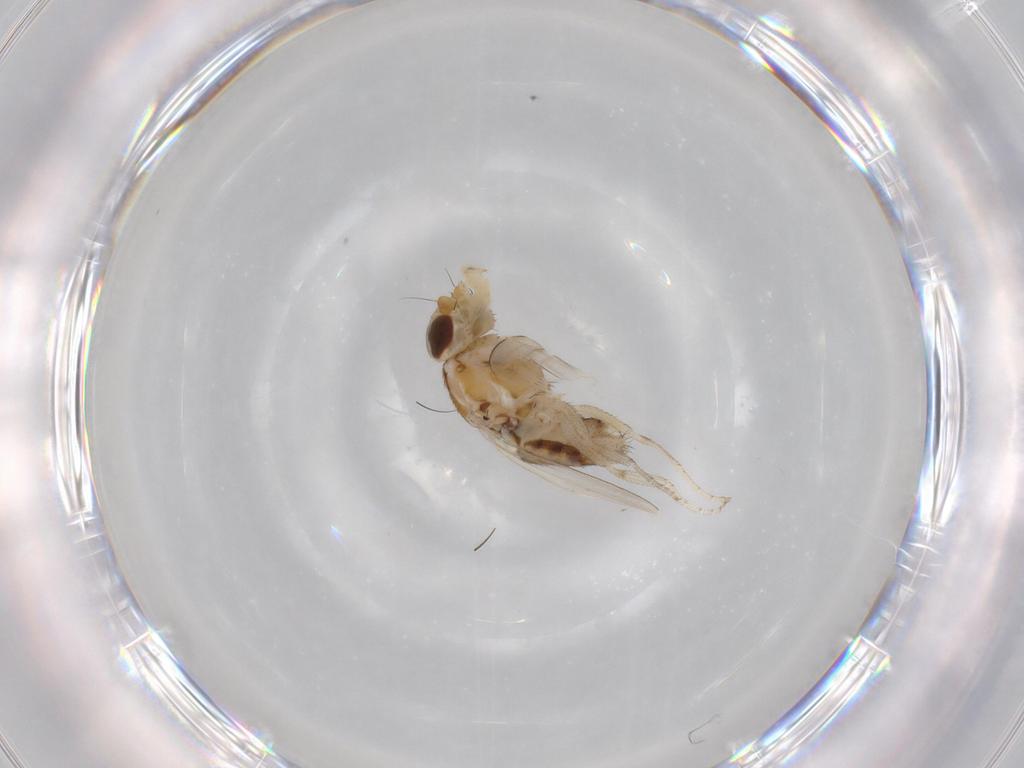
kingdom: Animalia
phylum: Arthropoda
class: Insecta
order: Diptera
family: Milichiidae
